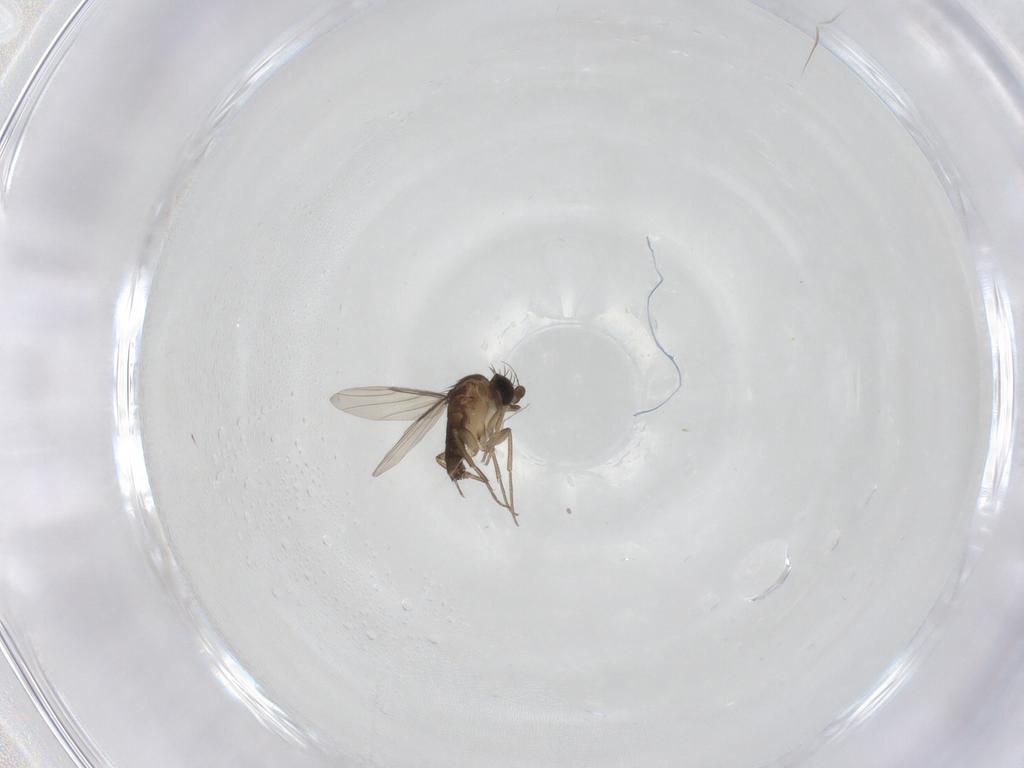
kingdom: Animalia
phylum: Arthropoda
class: Insecta
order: Diptera
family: Phoridae
